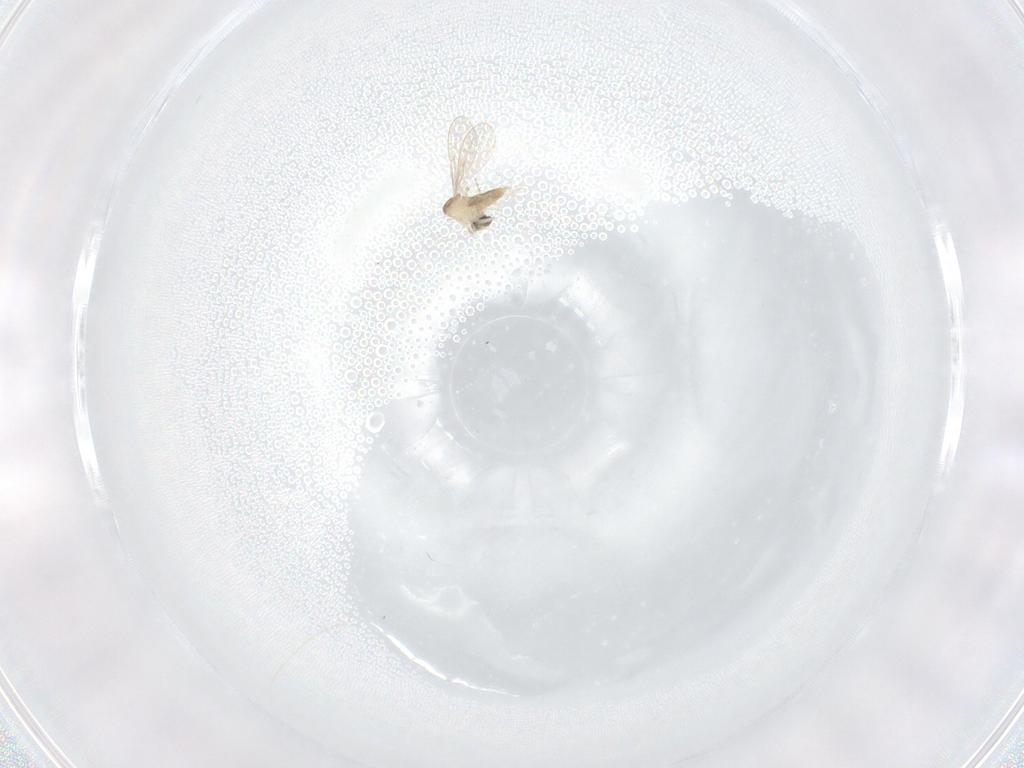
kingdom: Animalia
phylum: Arthropoda
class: Insecta
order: Diptera
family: Cecidomyiidae
